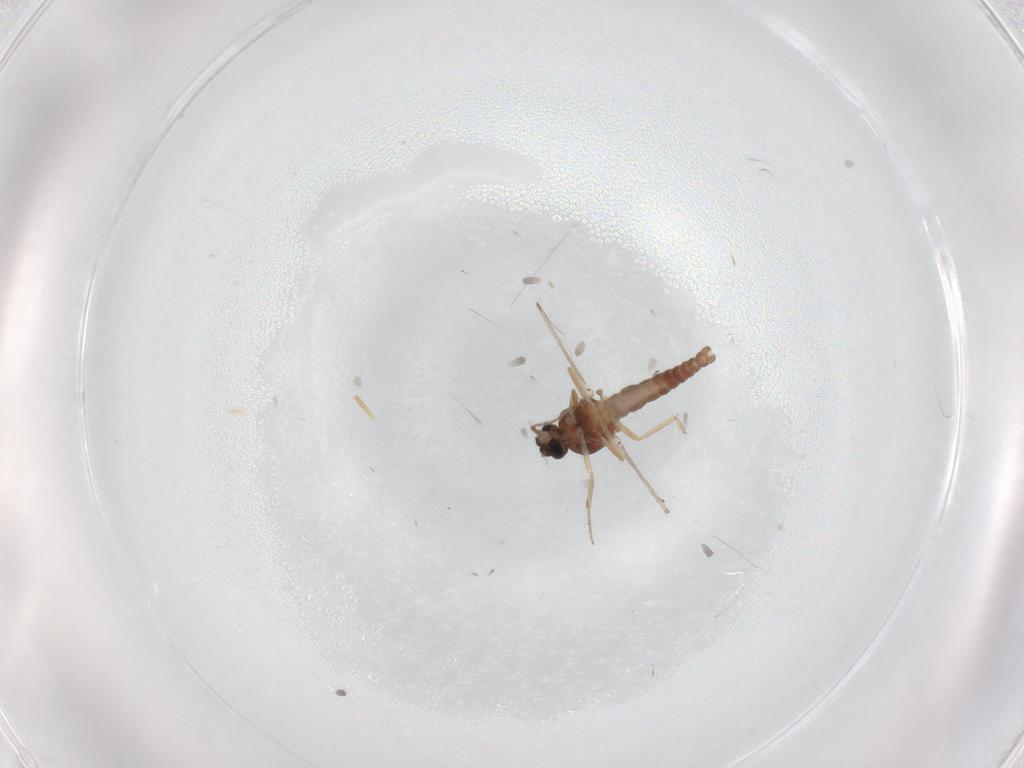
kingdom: Animalia
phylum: Arthropoda
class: Insecta
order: Diptera
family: Ceratopogonidae
